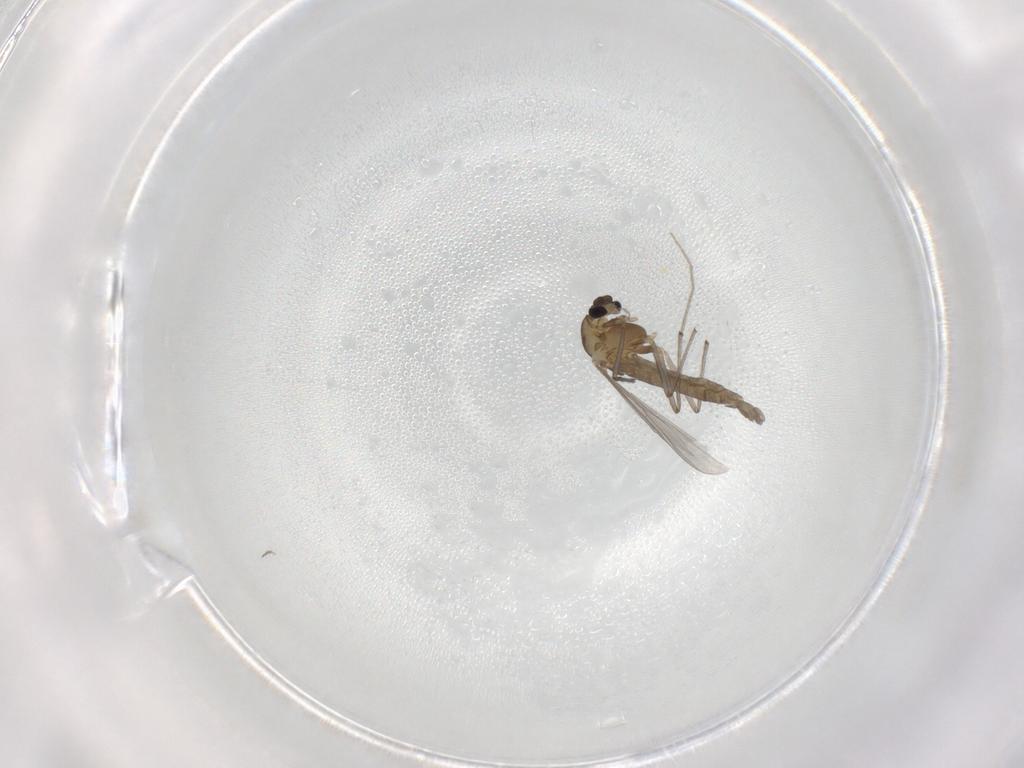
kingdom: Animalia
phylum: Arthropoda
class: Insecta
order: Diptera
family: Chironomidae
